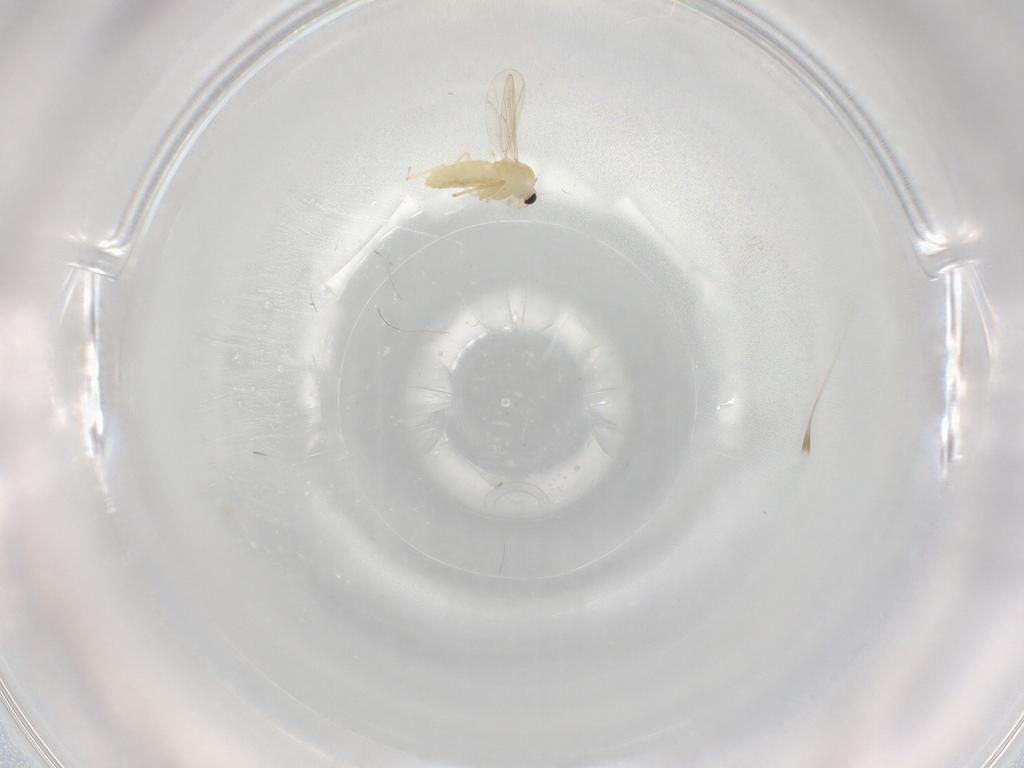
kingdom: Animalia
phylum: Arthropoda
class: Insecta
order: Diptera
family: Chironomidae
